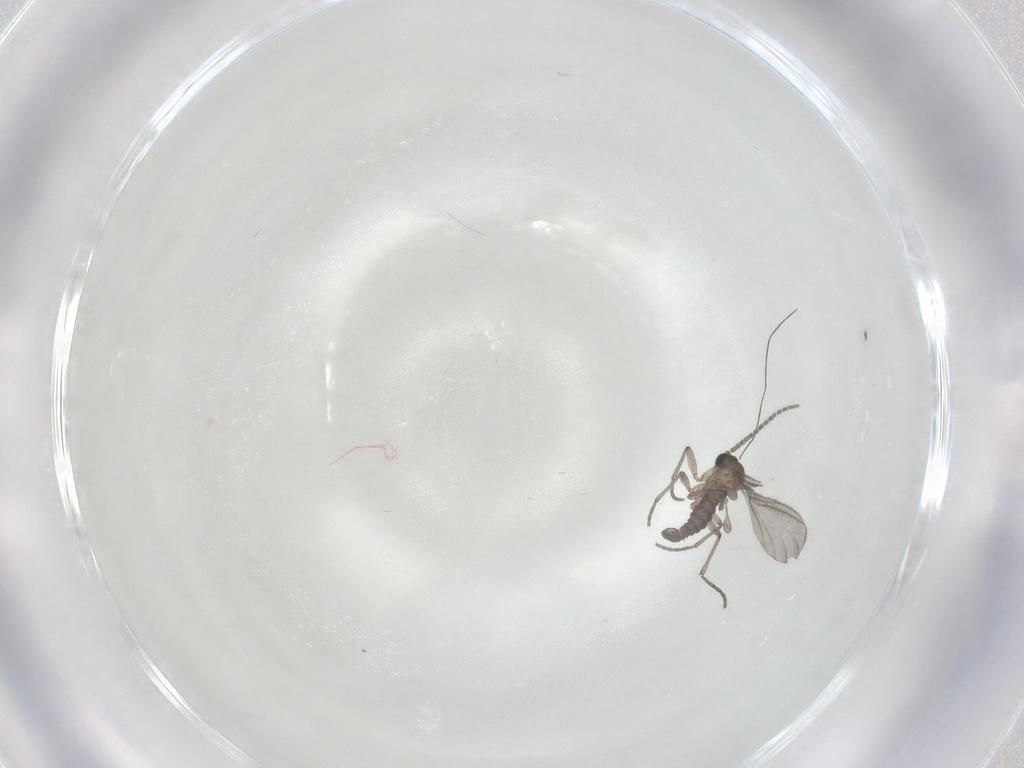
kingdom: Animalia
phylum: Arthropoda
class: Insecta
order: Diptera
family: Sciaridae
